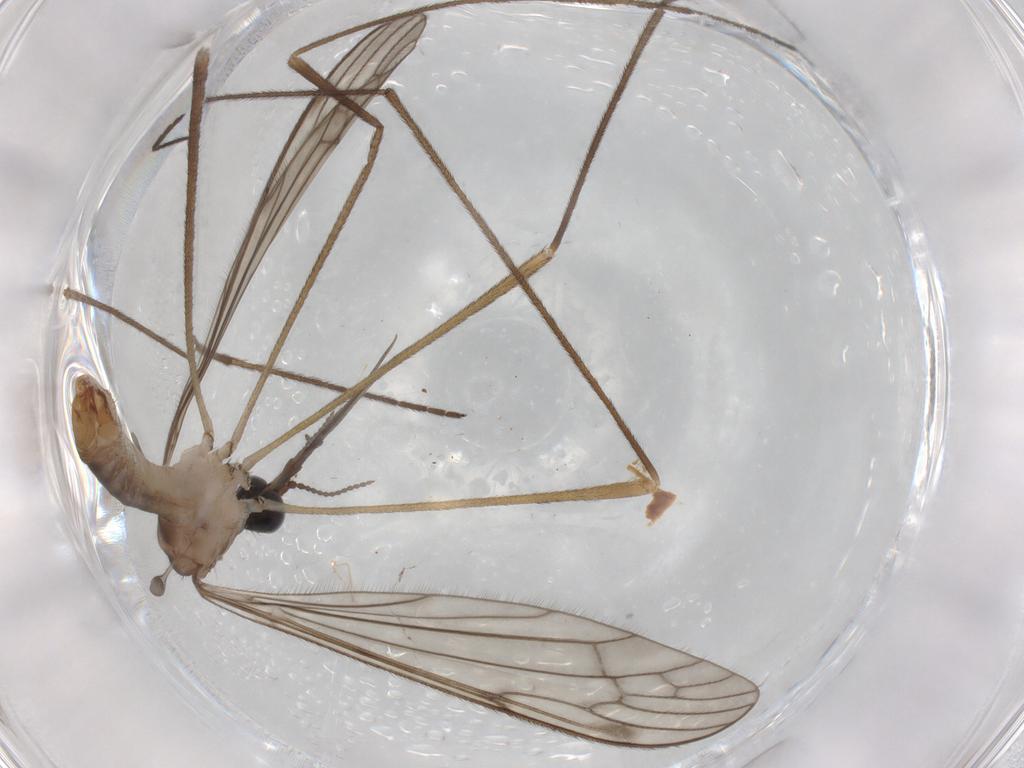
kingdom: Animalia
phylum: Arthropoda
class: Insecta
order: Diptera
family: Limoniidae
